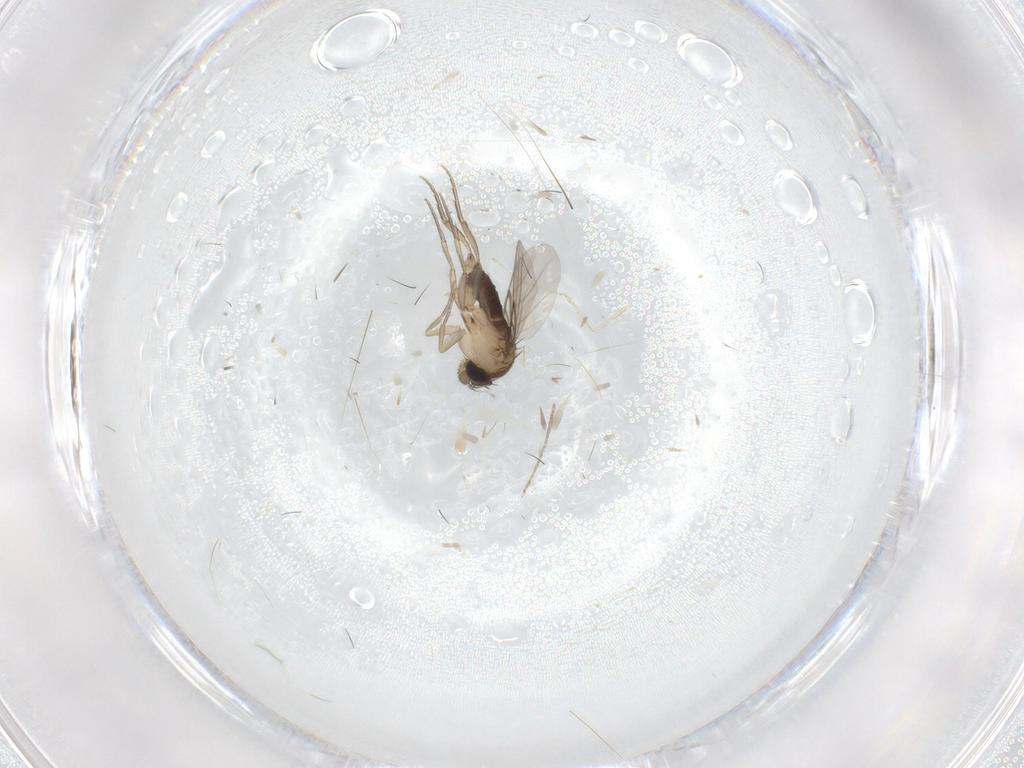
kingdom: Animalia
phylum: Arthropoda
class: Insecta
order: Diptera
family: Phoridae
